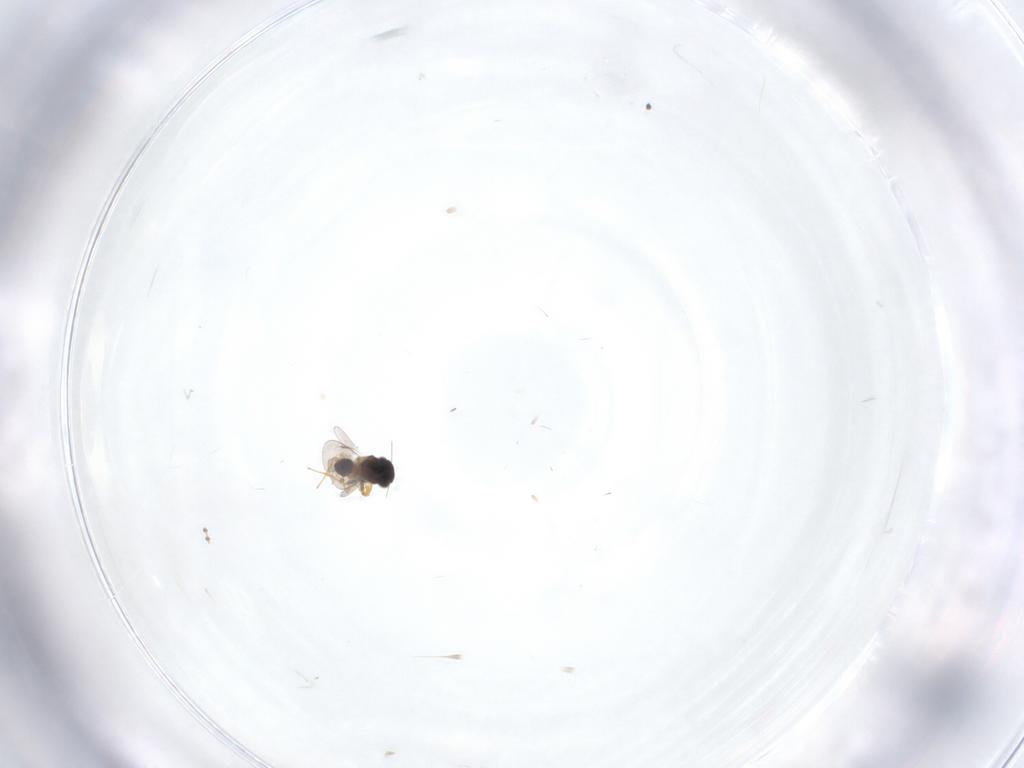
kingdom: Animalia
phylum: Arthropoda
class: Insecta
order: Hymenoptera
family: Platygastridae
